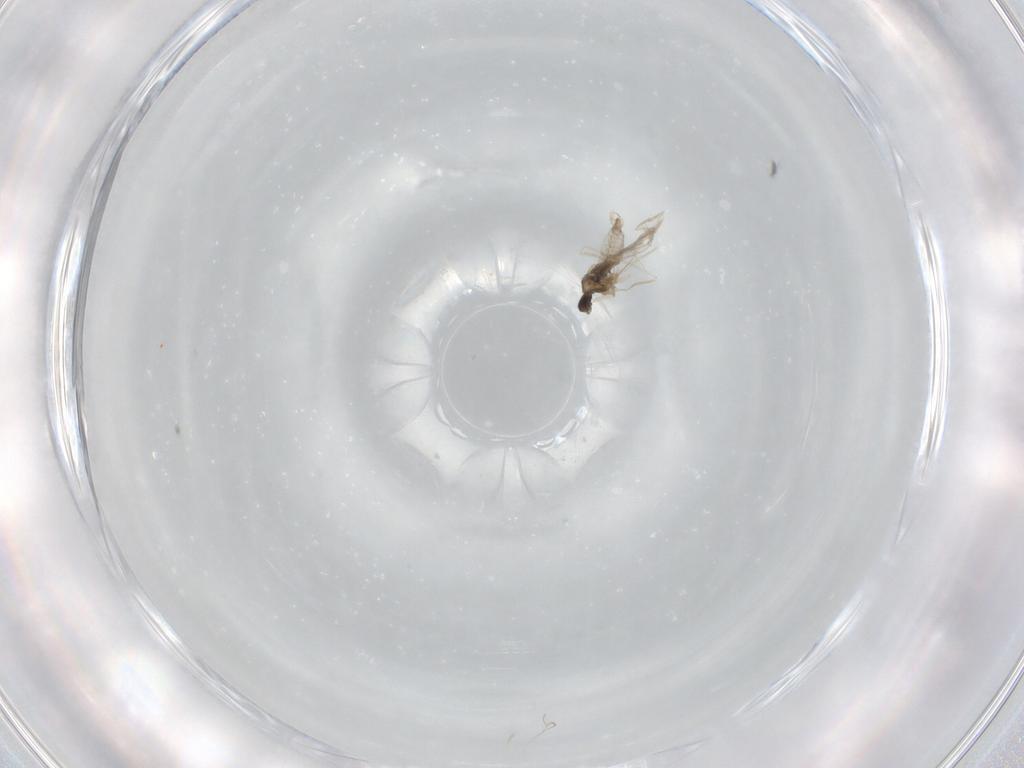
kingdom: Animalia
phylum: Arthropoda
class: Insecta
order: Diptera
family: Cecidomyiidae
